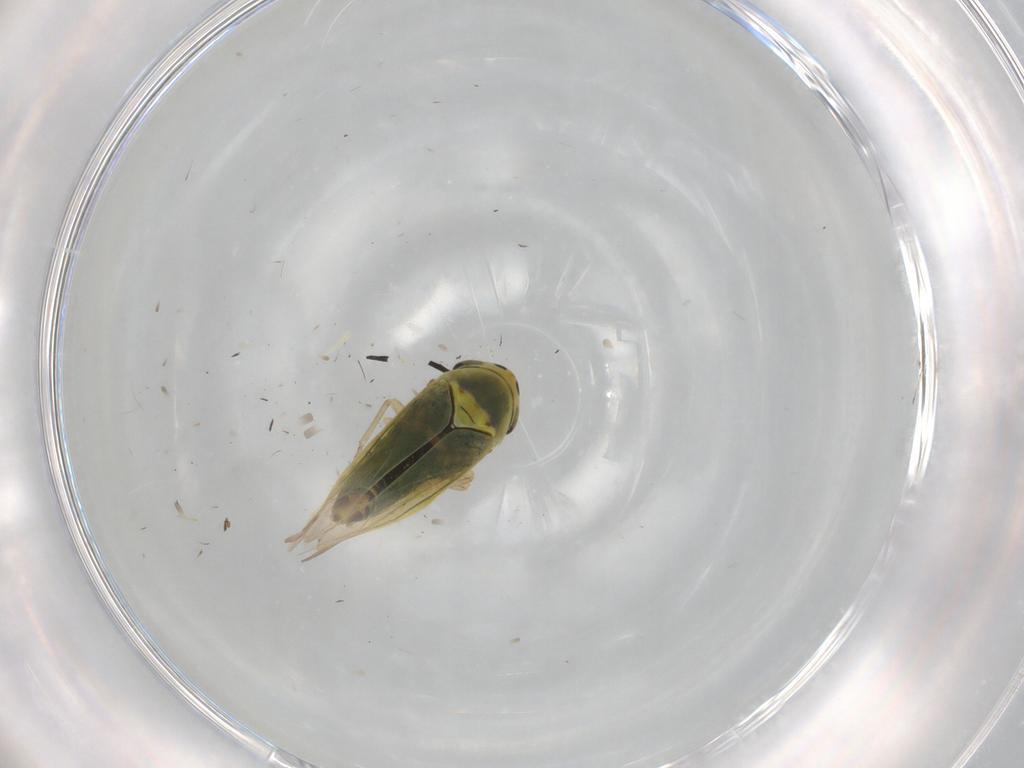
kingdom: Animalia
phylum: Arthropoda
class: Insecta
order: Hemiptera
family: Cicadellidae
